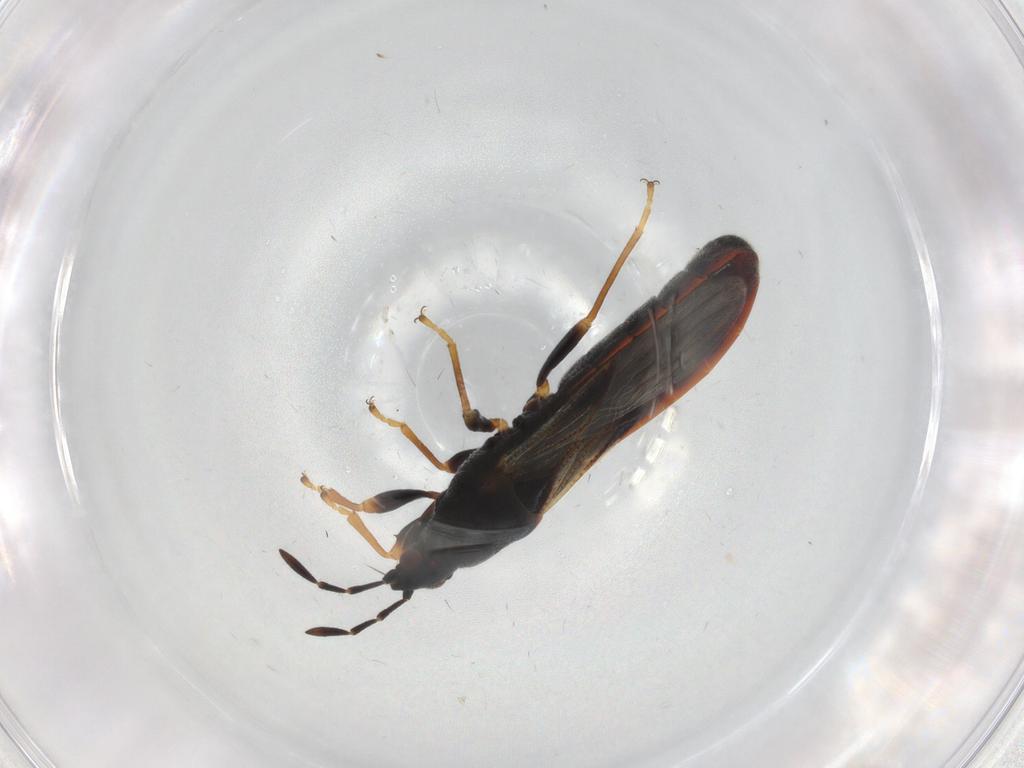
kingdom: Animalia
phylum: Arthropoda
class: Insecta
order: Hemiptera
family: Blissidae
